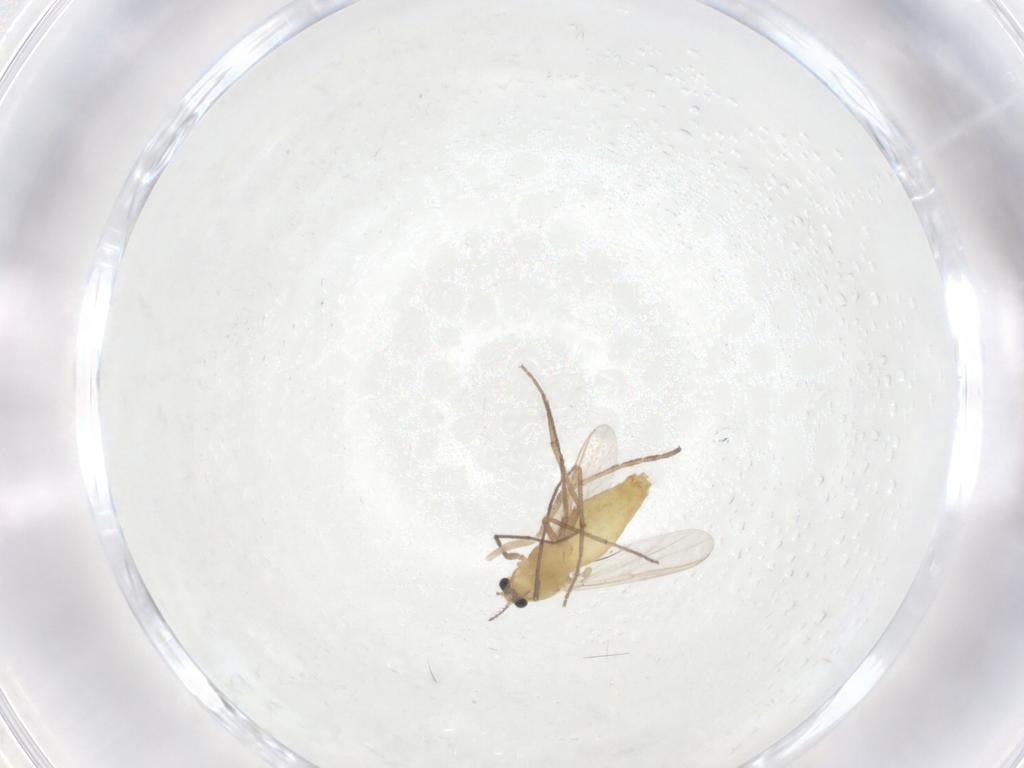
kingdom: Animalia
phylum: Arthropoda
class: Insecta
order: Diptera
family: Chironomidae
